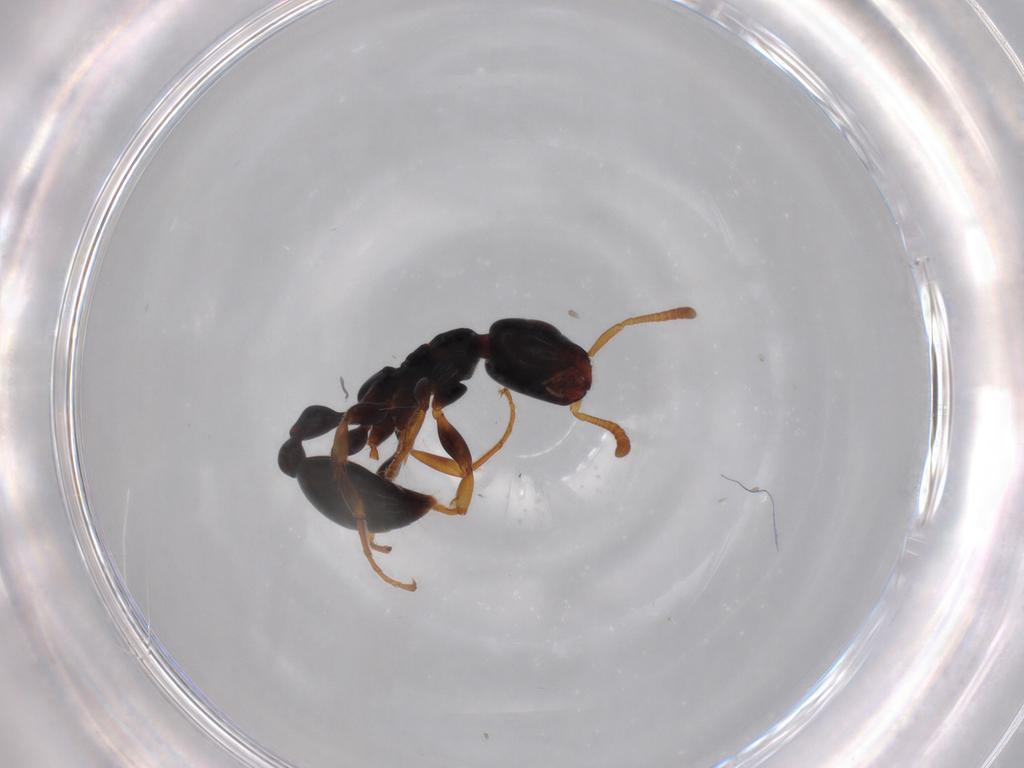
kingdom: Animalia
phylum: Arthropoda
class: Insecta
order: Hymenoptera
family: Formicidae
